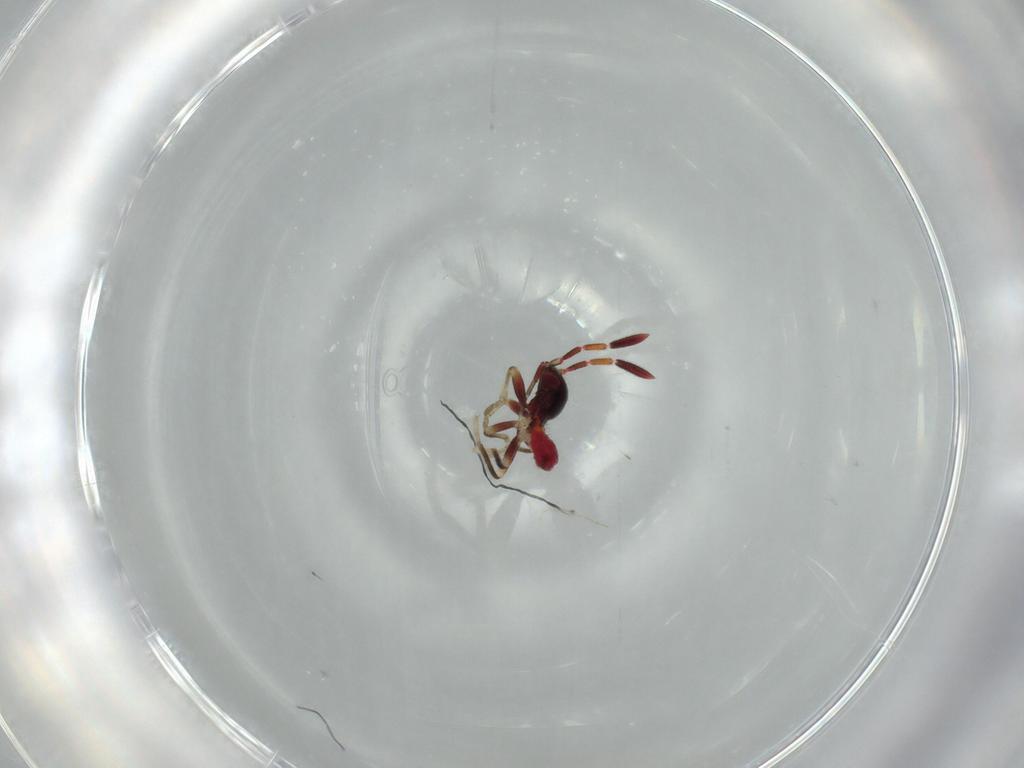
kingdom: Animalia
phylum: Arthropoda
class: Insecta
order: Hemiptera
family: Rhyparochromidae
